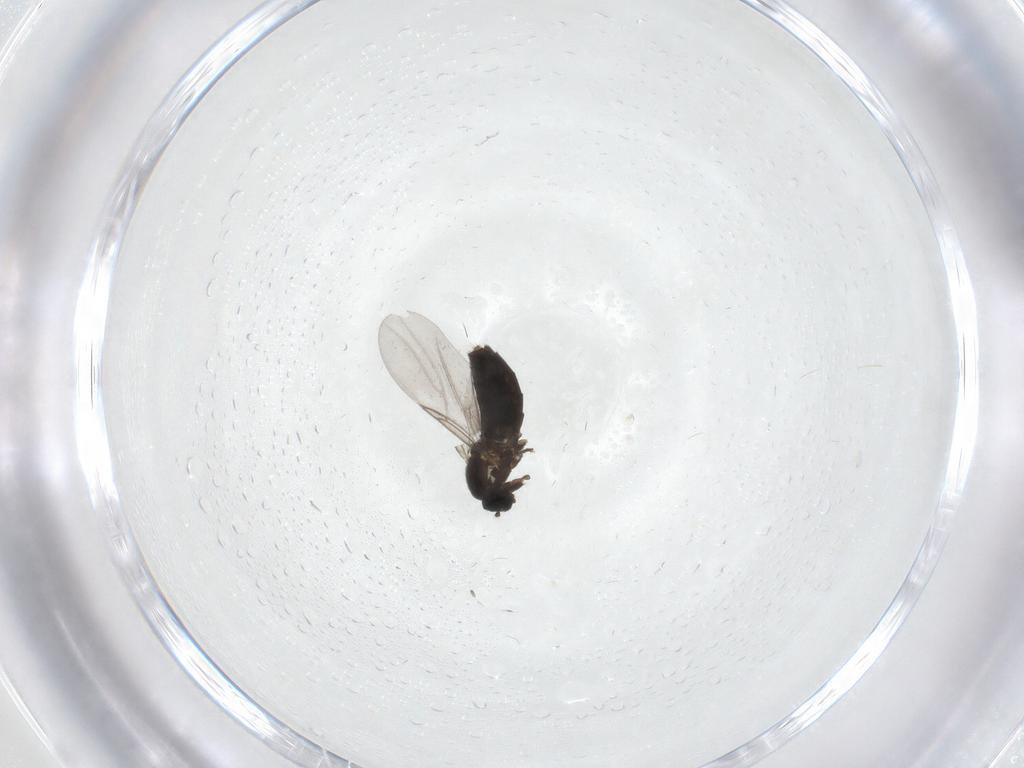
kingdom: Animalia
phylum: Arthropoda
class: Insecta
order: Diptera
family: Scatopsidae
